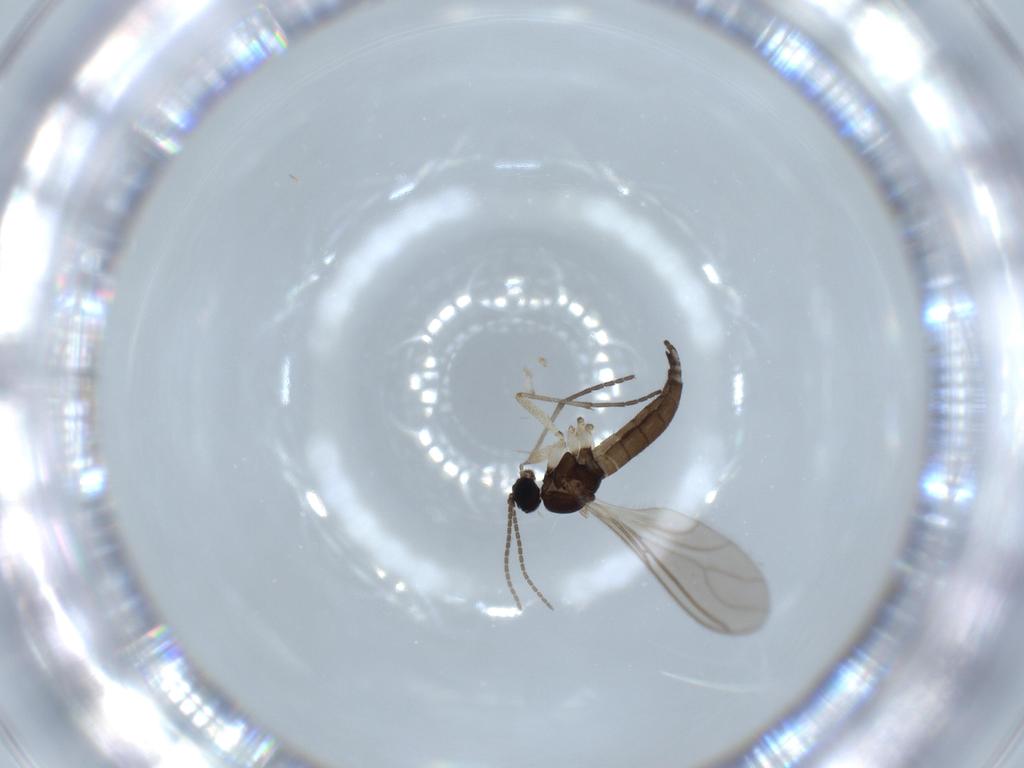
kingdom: Animalia
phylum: Arthropoda
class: Insecta
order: Diptera
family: Sciaridae
